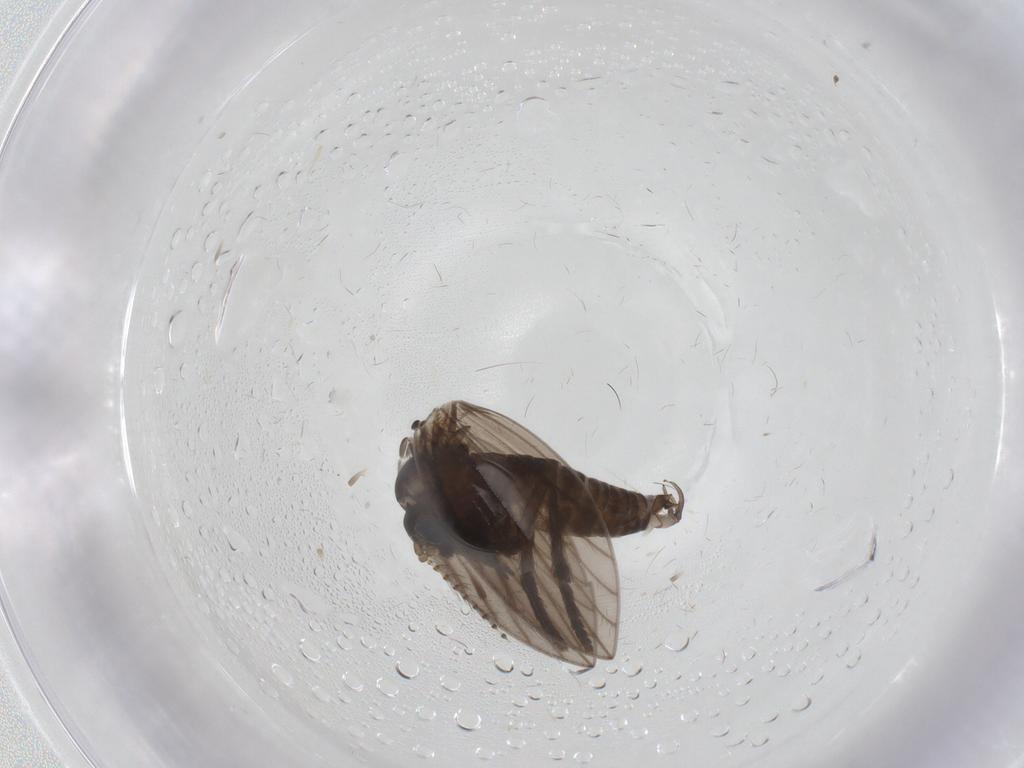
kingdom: Animalia
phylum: Arthropoda
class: Insecta
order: Diptera
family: Psychodidae
